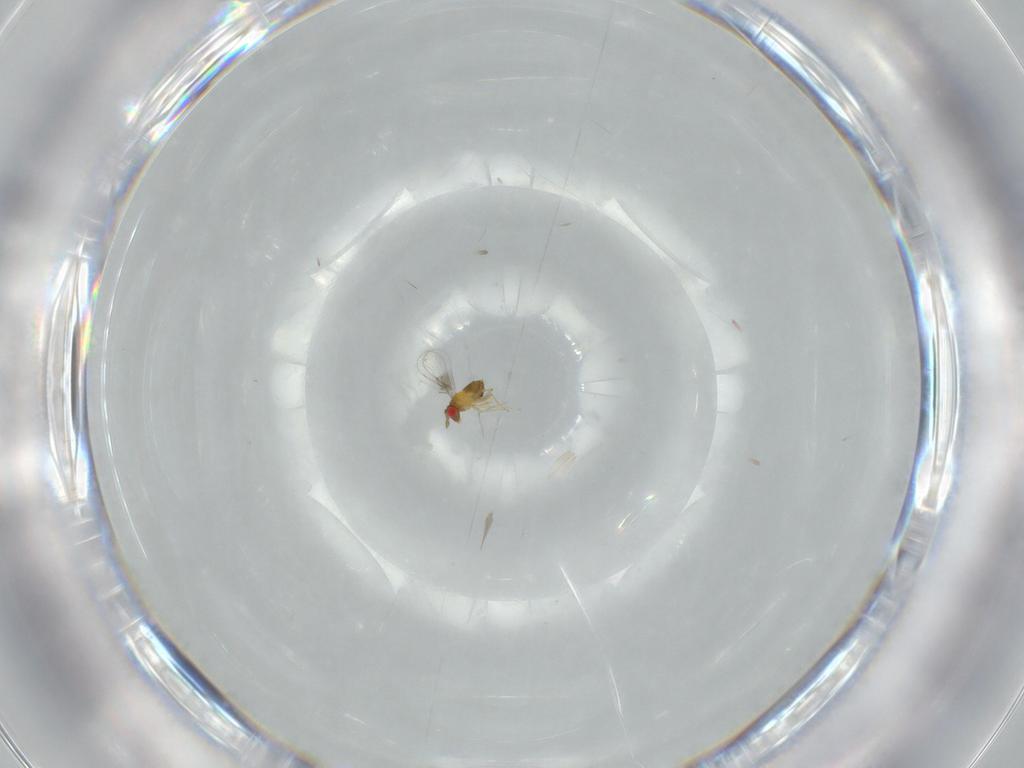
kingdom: Animalia
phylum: Arthropoda
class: Insecta
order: Hymenoptera
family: Trichogrammatidae
